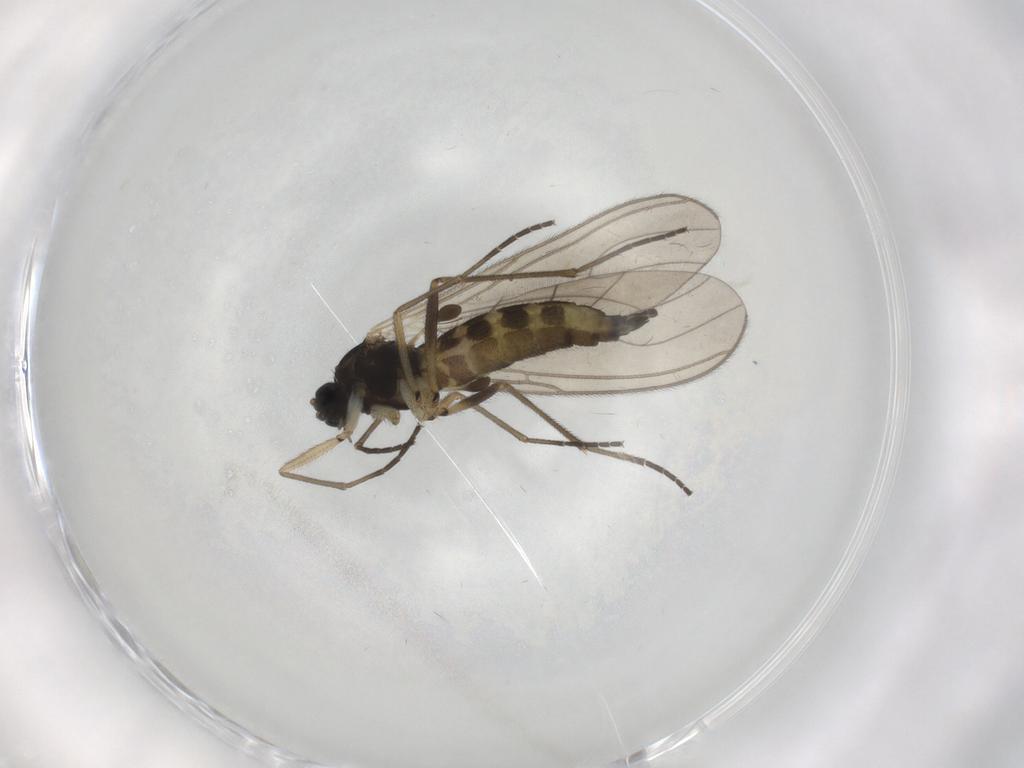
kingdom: Animalia
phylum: Arthropoda
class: Insecta
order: Diptera
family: Sciaridae
